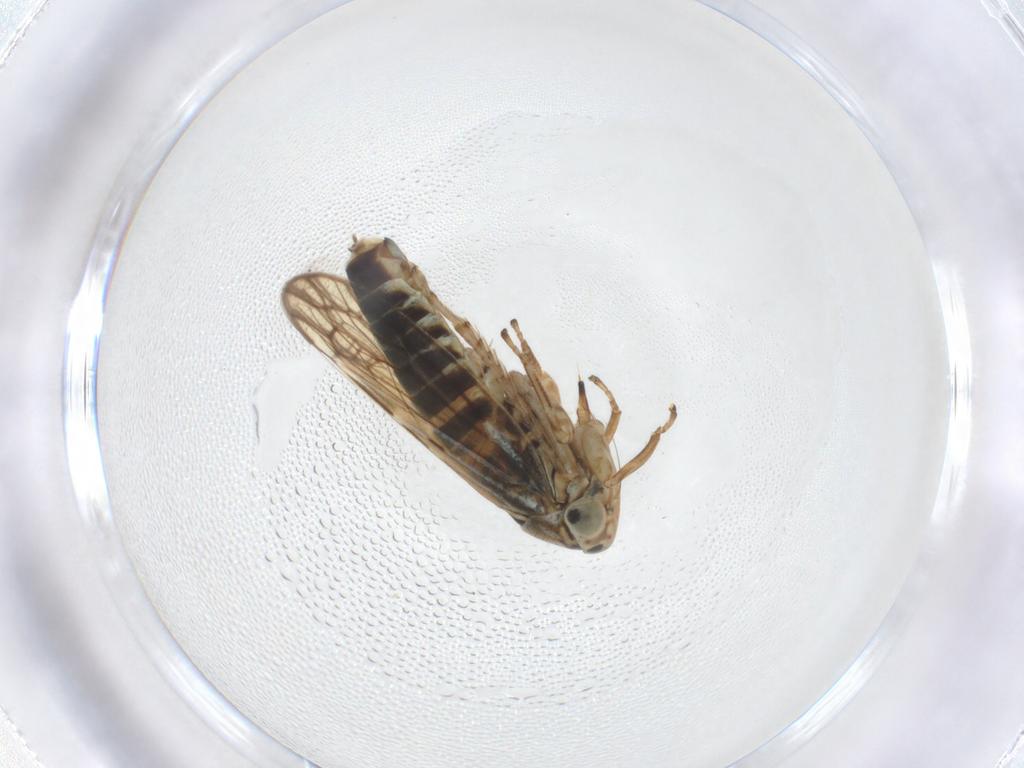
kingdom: Animalia
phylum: Arthropoda
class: Insecta
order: Hemiptera
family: Cicadellidae
